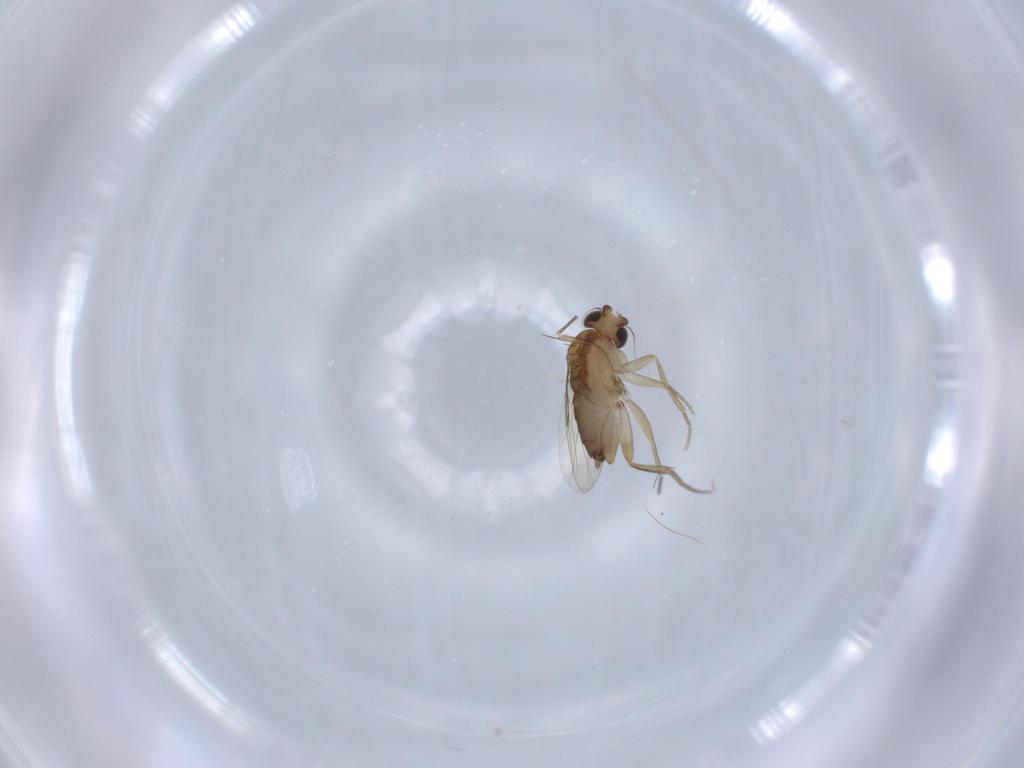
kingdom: Animalia
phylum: Arthropoda
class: Insecta
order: Diptera
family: Phoridae
